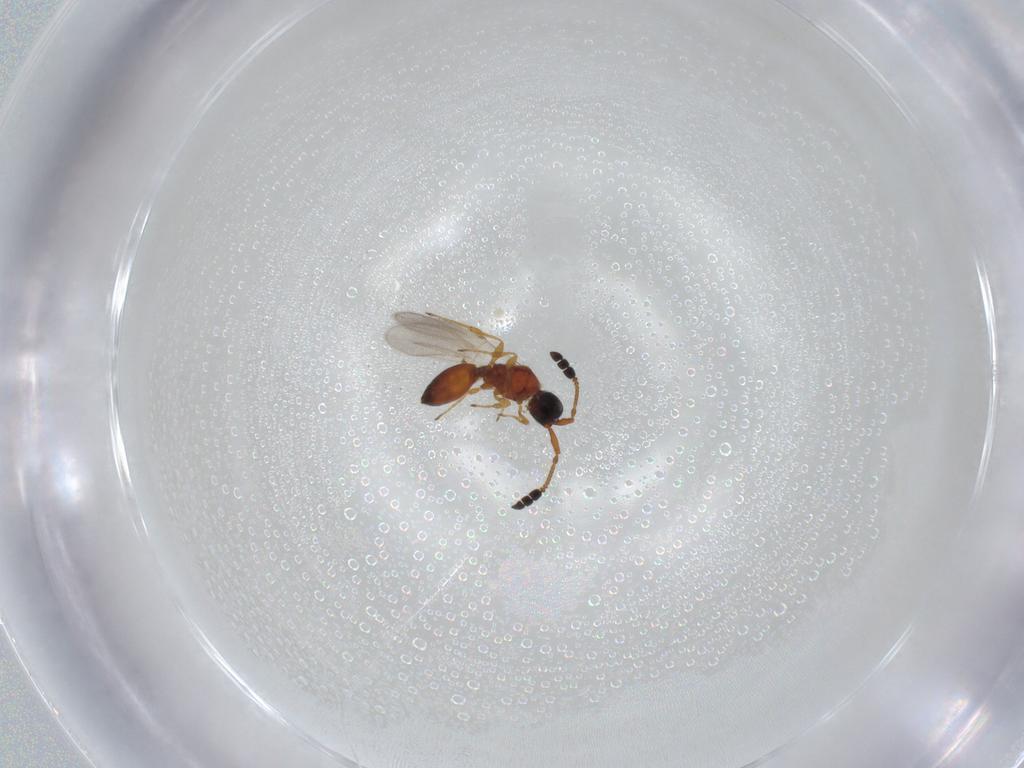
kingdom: Animalia
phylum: Arthropoda
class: Insecta
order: Hymenoptera
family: Diapriidae
